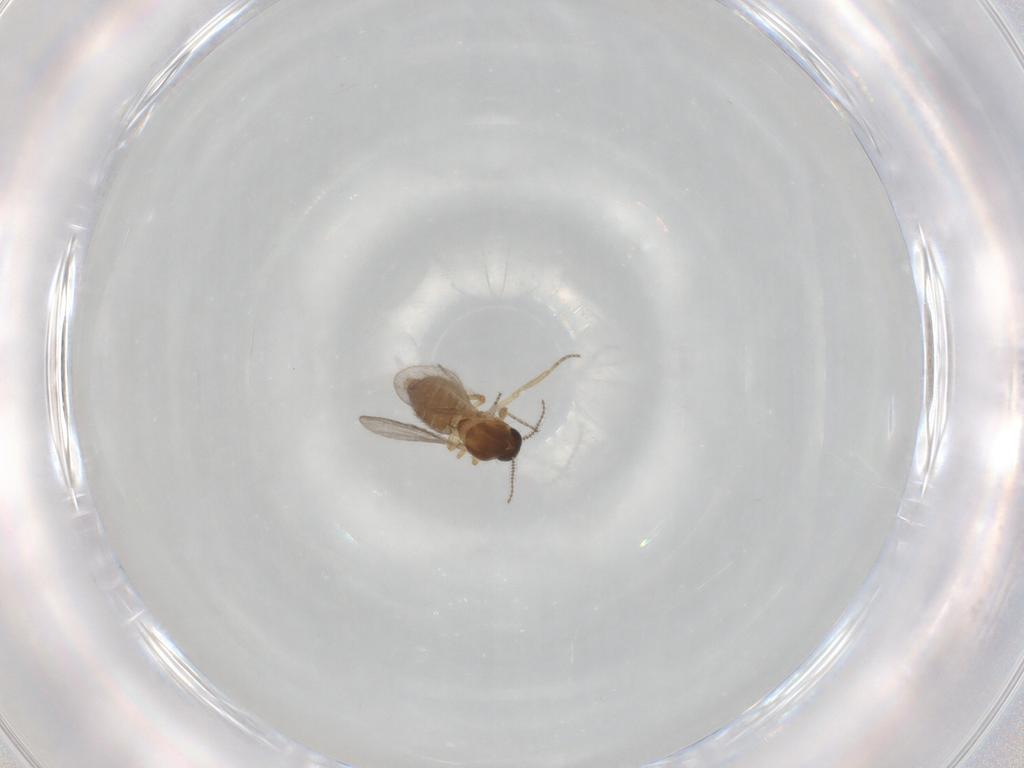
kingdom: Animalia
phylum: Arthropoda
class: Insecta
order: Diptera
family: Ceratopogonidae
